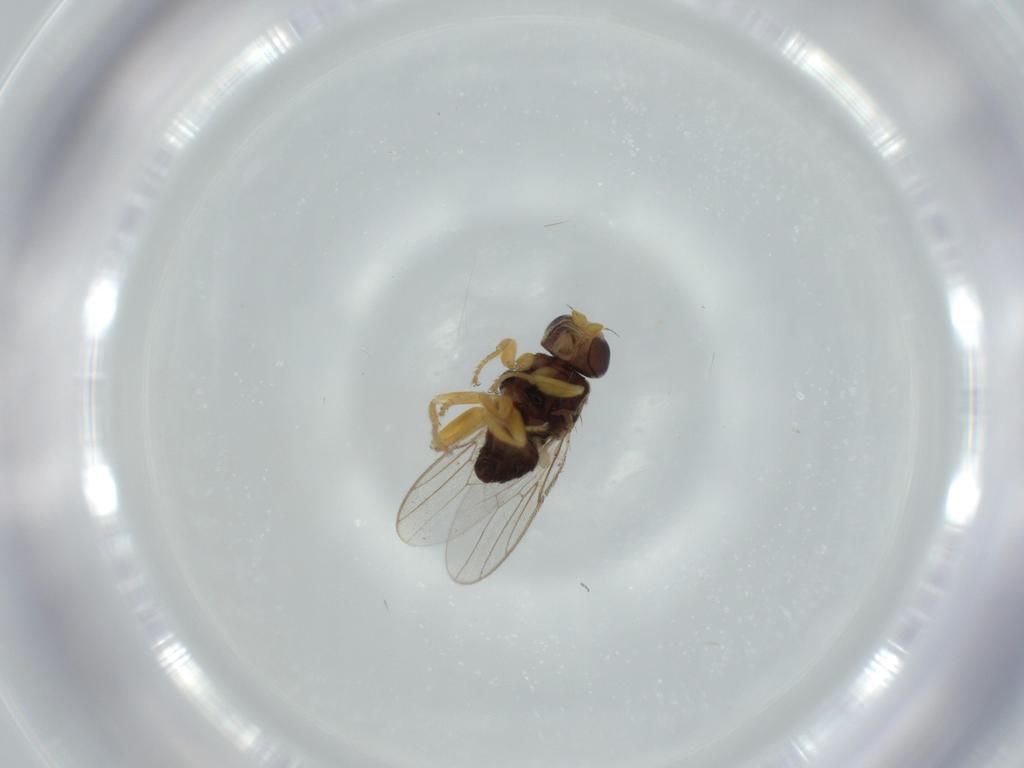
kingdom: Animalia
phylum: Arthropoda
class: Insecta
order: Diptera
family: Chloropidae
